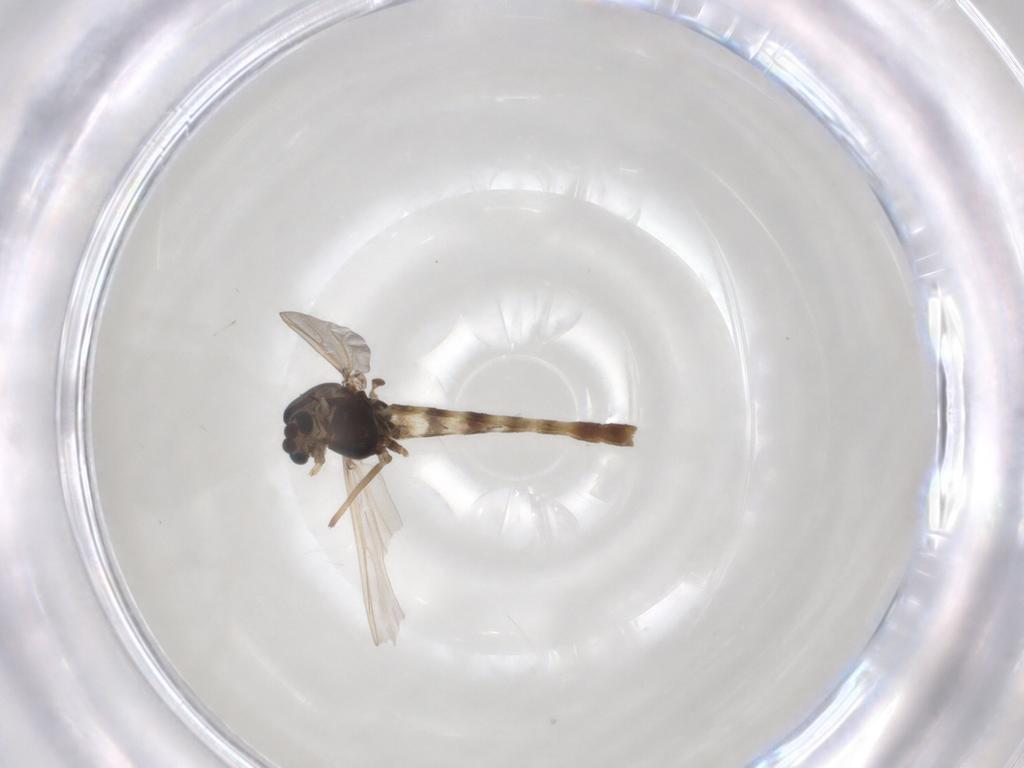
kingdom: Animalia
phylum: Arthropoda
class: Insecta
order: Diptera
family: Chironomidae
